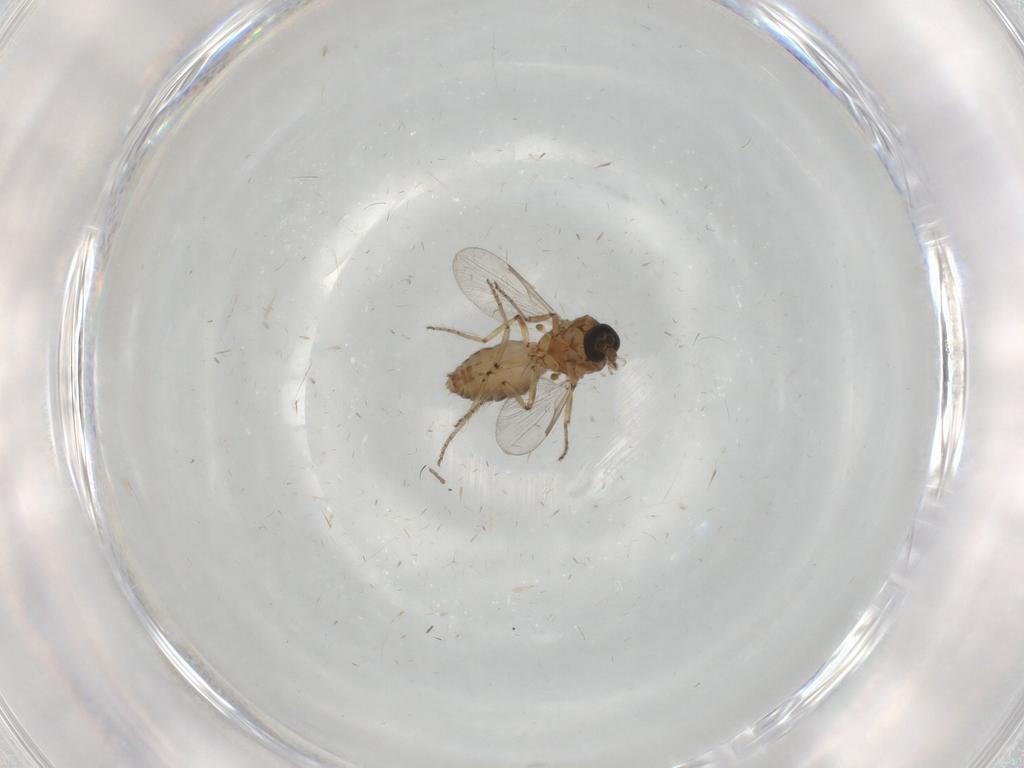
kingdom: Animalia
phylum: Arthropoda
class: Insecta
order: Diptera
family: Ceratopogonidae
